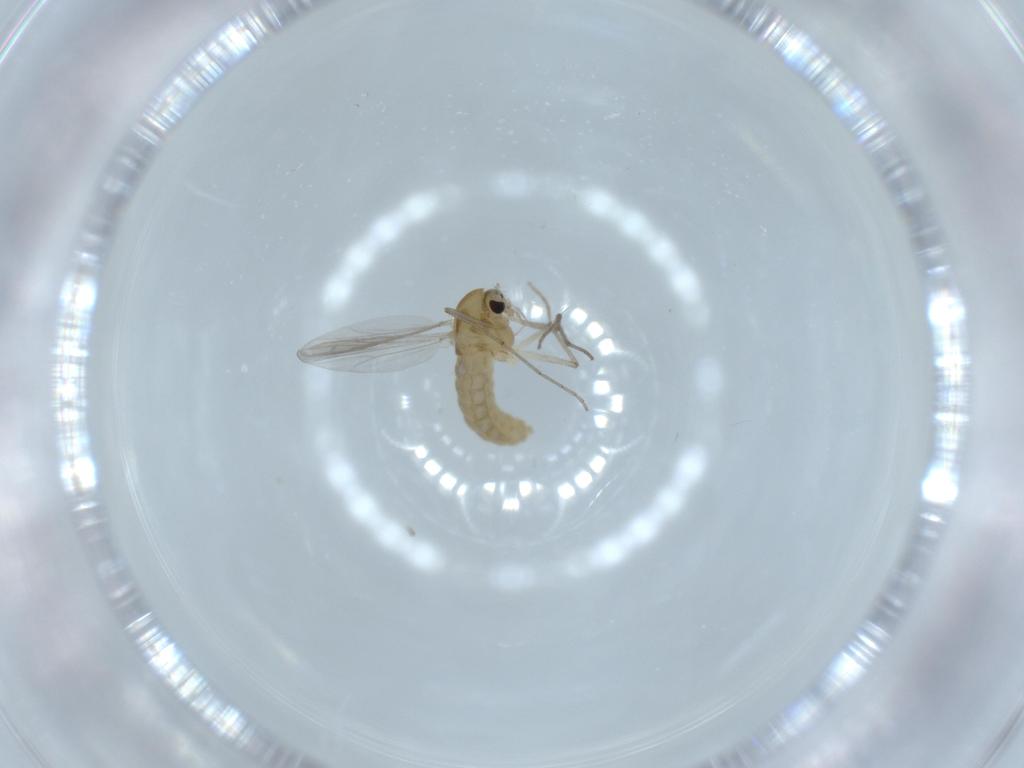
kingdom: Animalia
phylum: Arthropoda
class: Insecta
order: Diptera
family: Chironomidae
